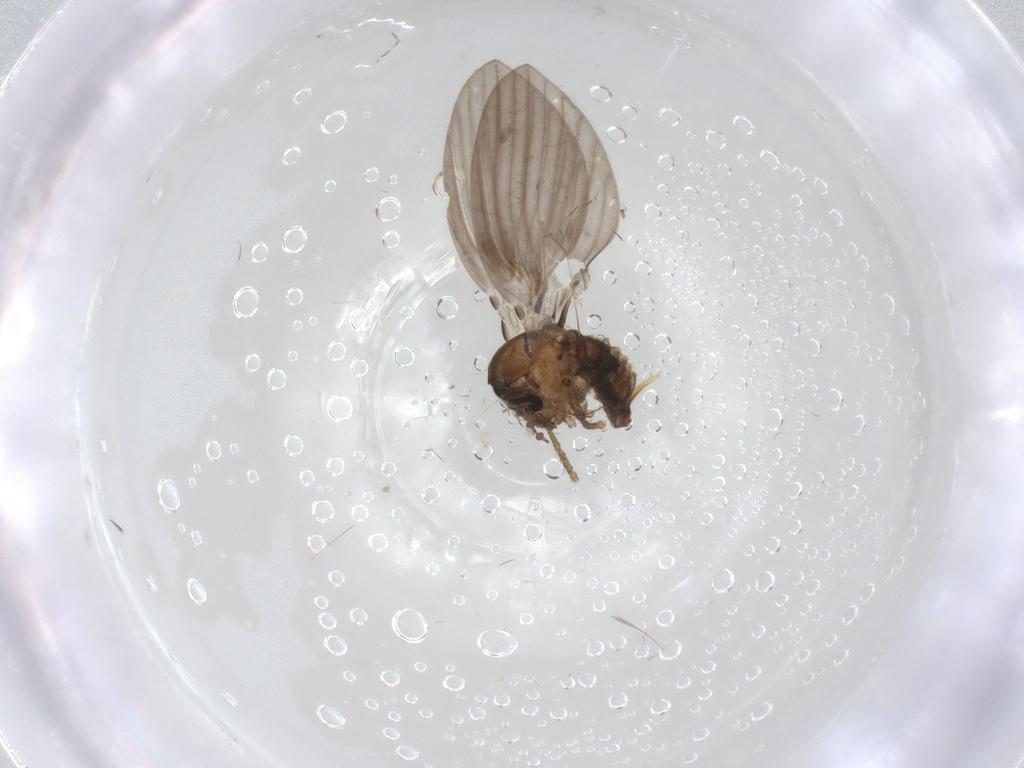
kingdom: Animalia
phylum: Arthropoda
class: Insecta
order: Diptera
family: Psychodidae
